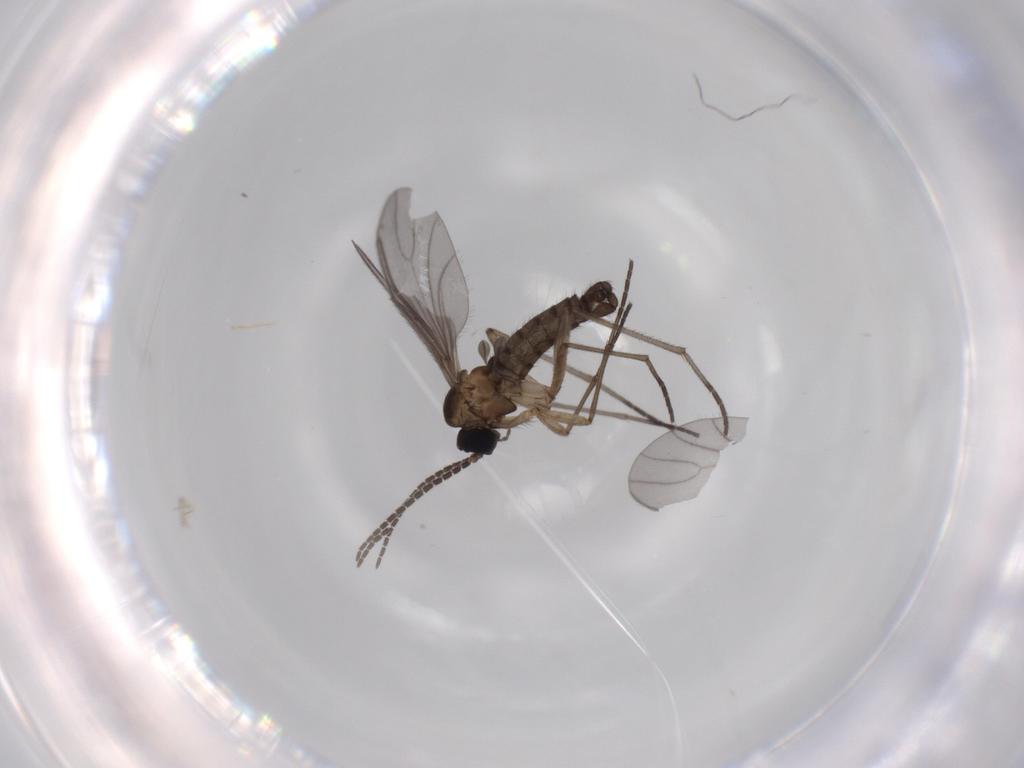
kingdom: Animalia
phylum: Arthropoda
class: Insecta
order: Diptera
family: Sciaridae
